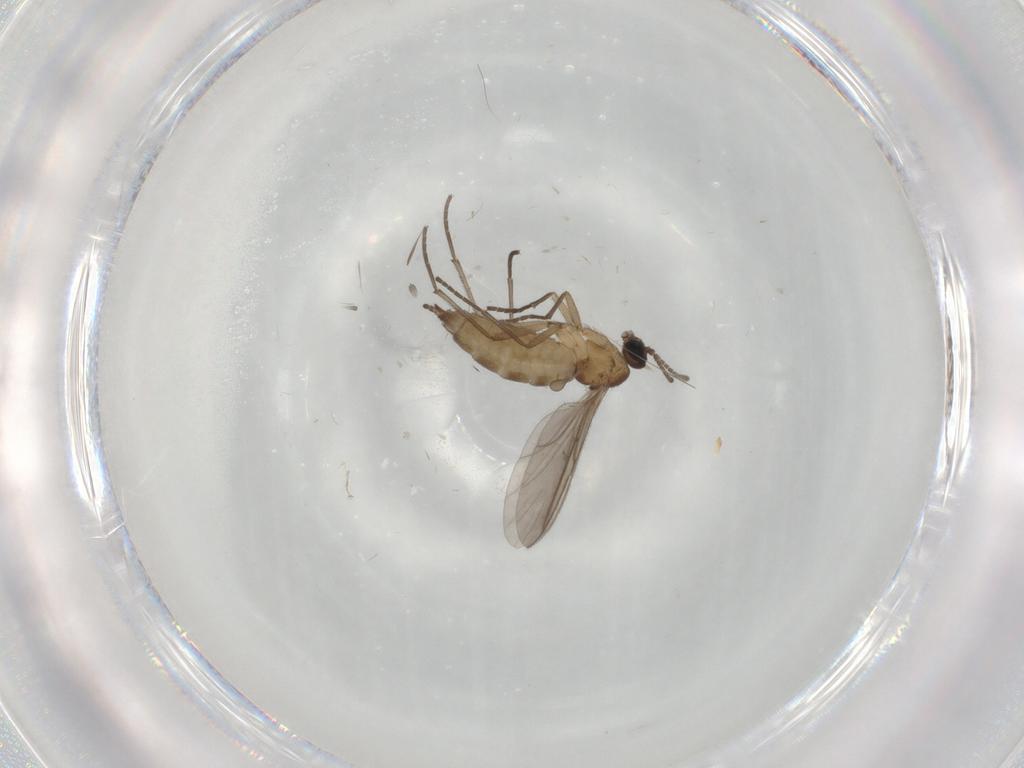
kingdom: Animalia
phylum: Arthropoda
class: Insecta
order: Diptera
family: Sciaridae
